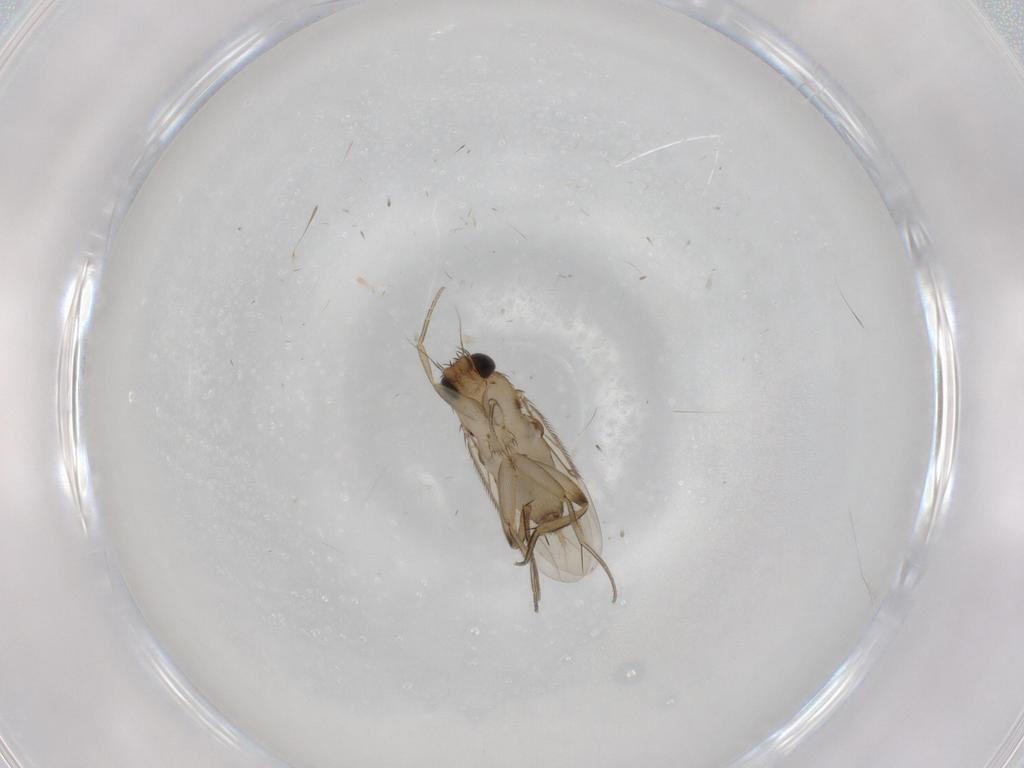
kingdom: Animalia
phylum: Arthropoda
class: Insecta
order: Diptera
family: Phoridae
